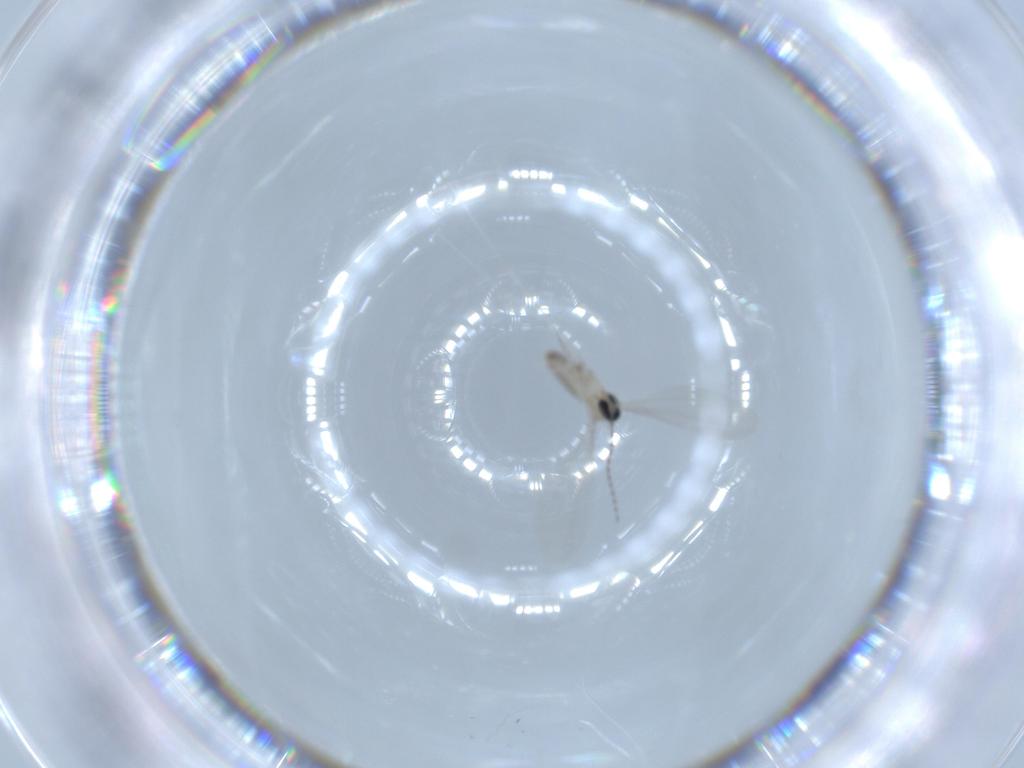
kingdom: Animalia
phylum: Arthropoda
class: Insecta
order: Diptera
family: Cecidomyiidae
